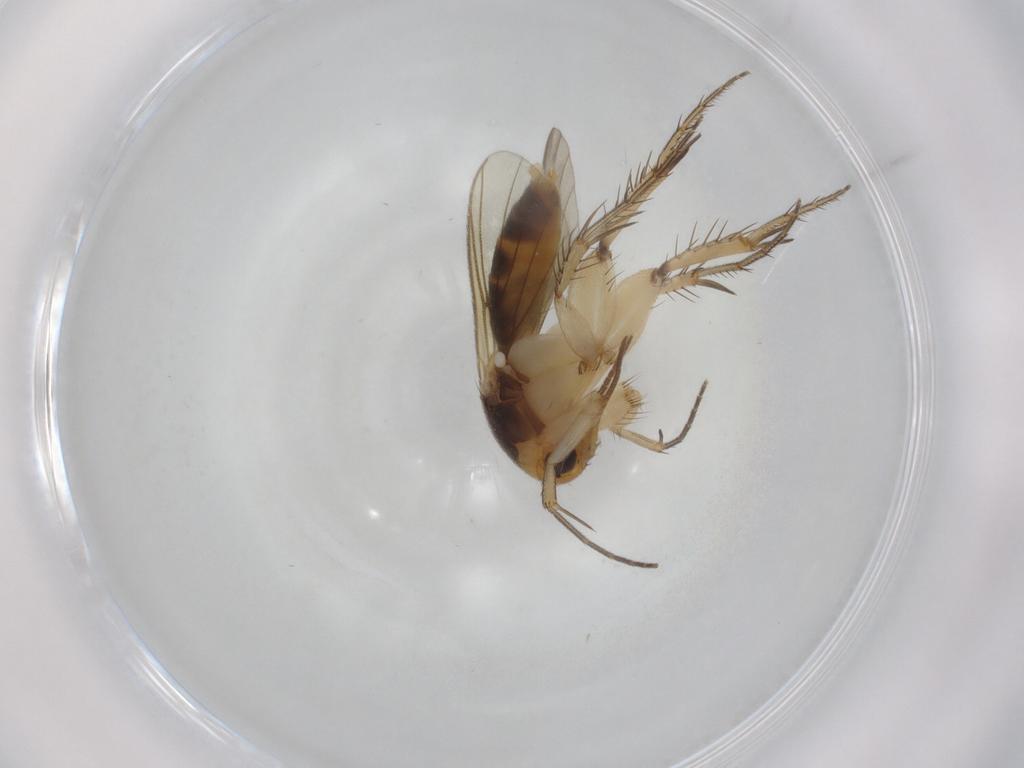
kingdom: Animalia
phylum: Arthropoda
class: Insecta
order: Diptera
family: Mycetophilidae
